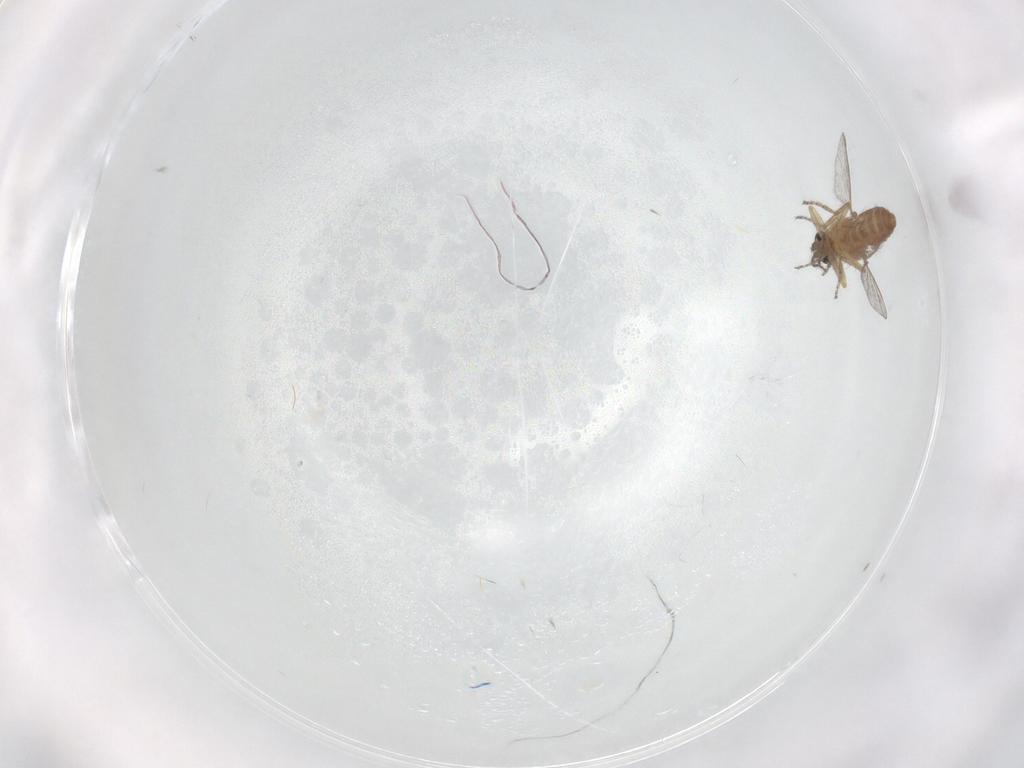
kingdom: Animalia
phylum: Arthropoda
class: Insecta
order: Diptera
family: Ceratopogonidae
